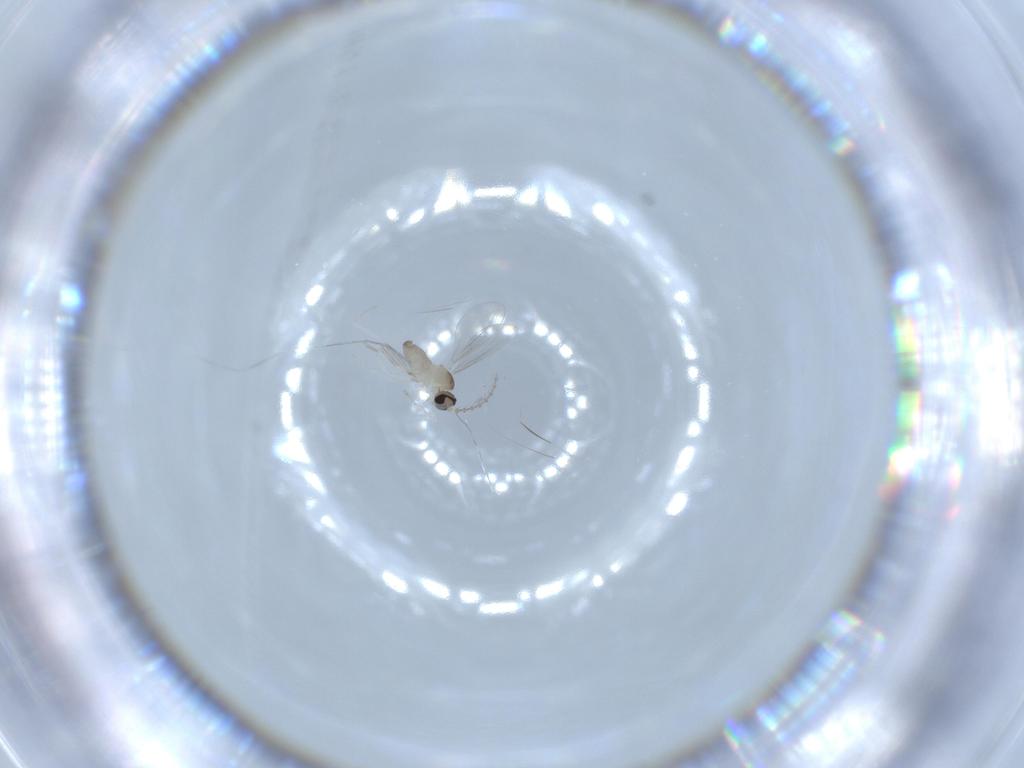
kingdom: Animalia
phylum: Arthropoda
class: Insecta
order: Diptera
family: Cecidomyiidae
